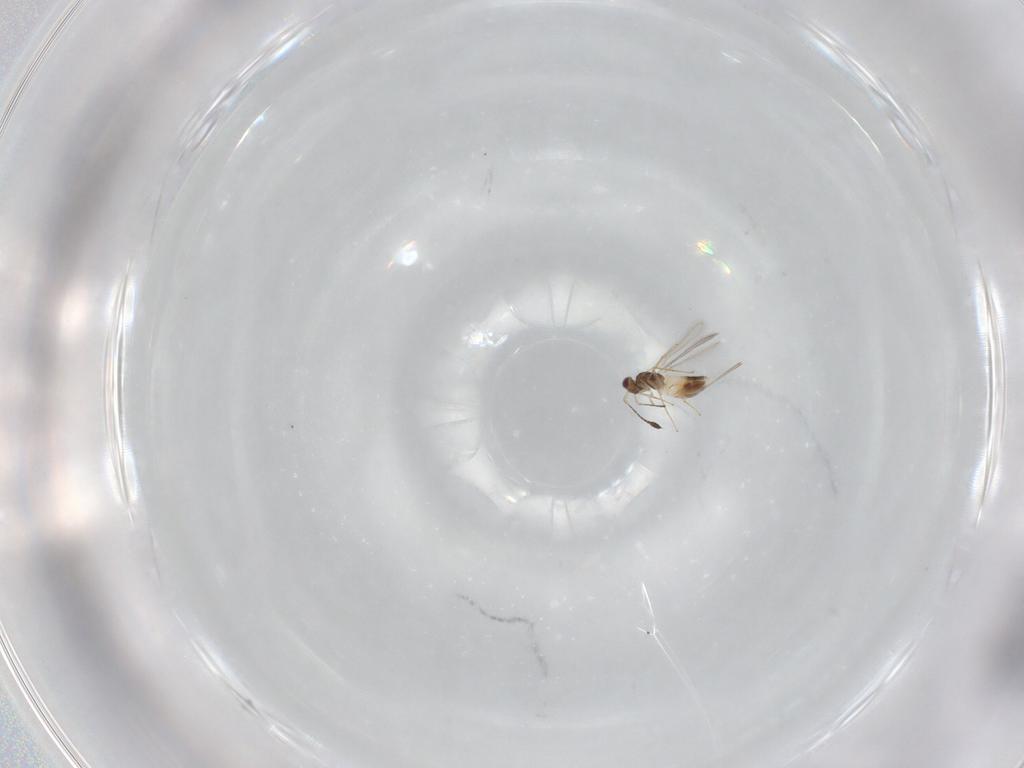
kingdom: Animalia
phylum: Arthropoda
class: Insecta
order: Hymenoptera
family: Mymaridae
